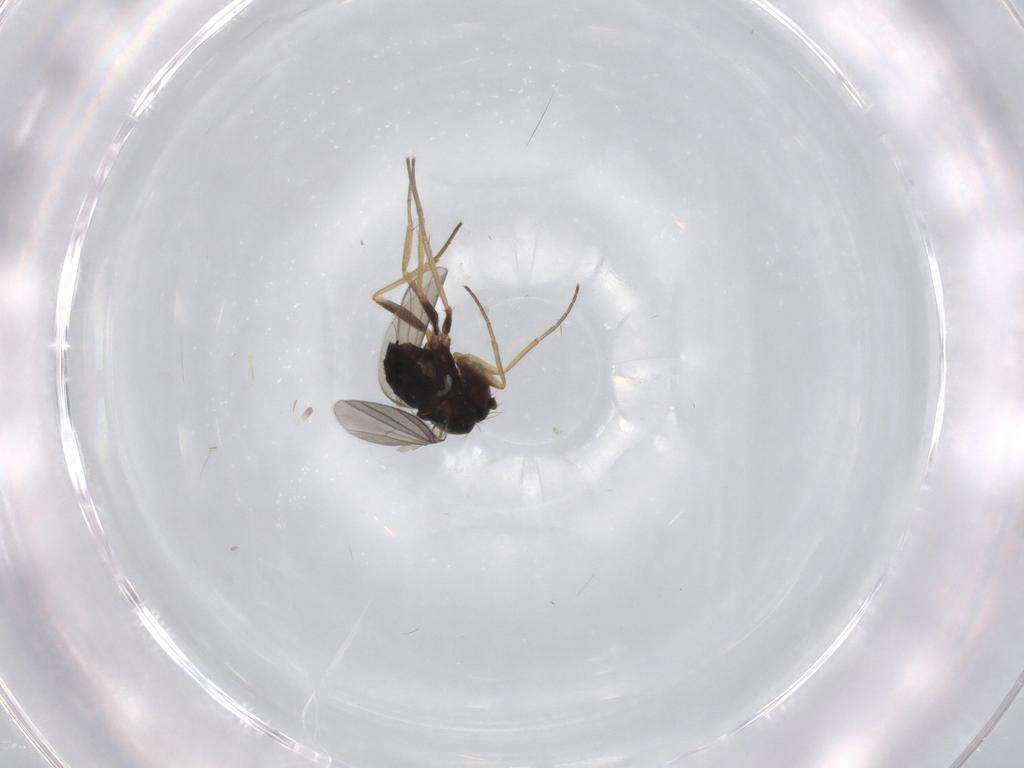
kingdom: Animalia
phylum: Arthropoda
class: Insecta
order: Diptera
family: Dolichopodidae
